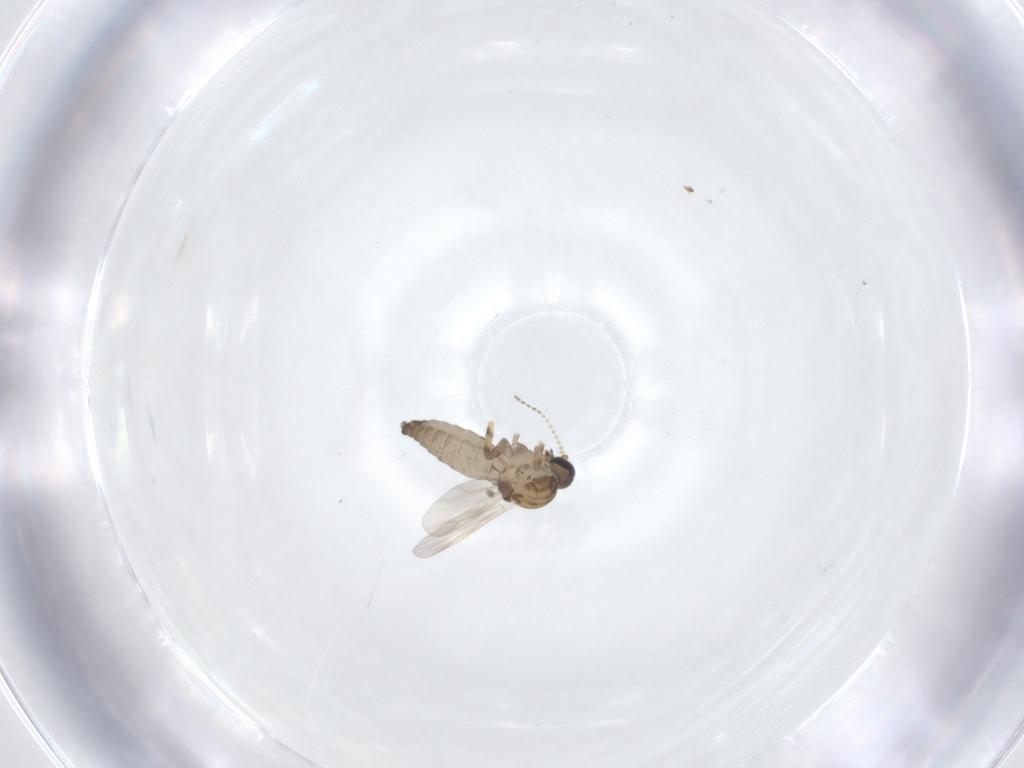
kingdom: Animalia
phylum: Arthropoda
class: Insecta
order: Diptera
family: Ceratopogonidae
